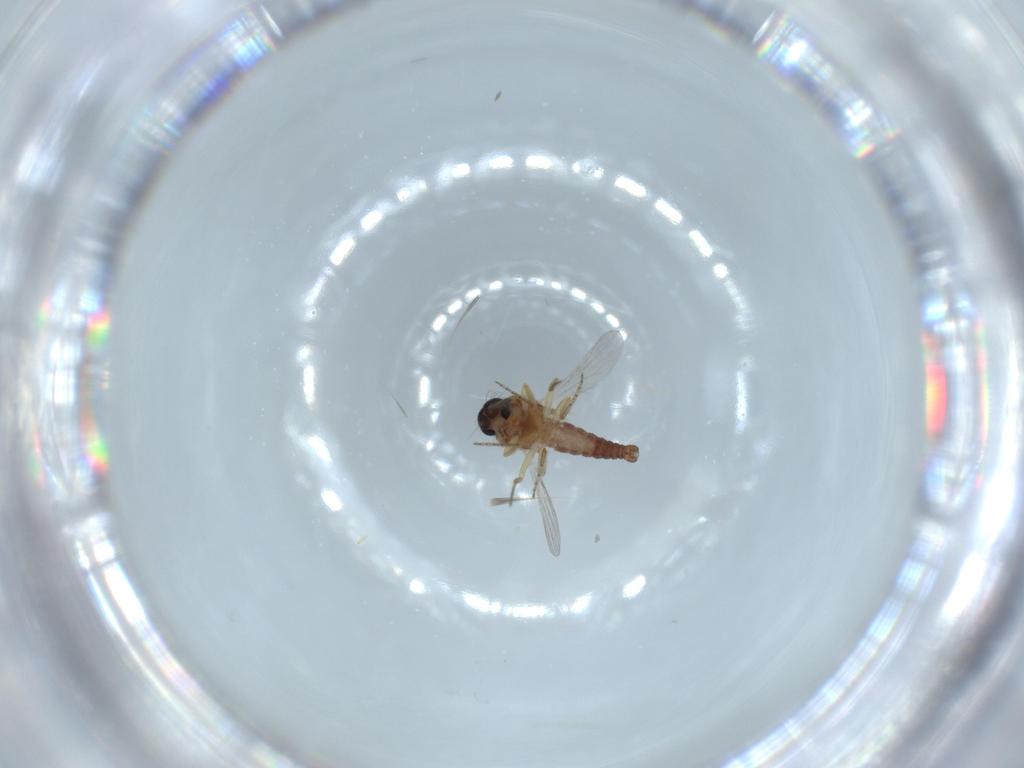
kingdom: Animalia
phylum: Arthropoda
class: Insecta
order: Diptera
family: Ceratopogonidae
